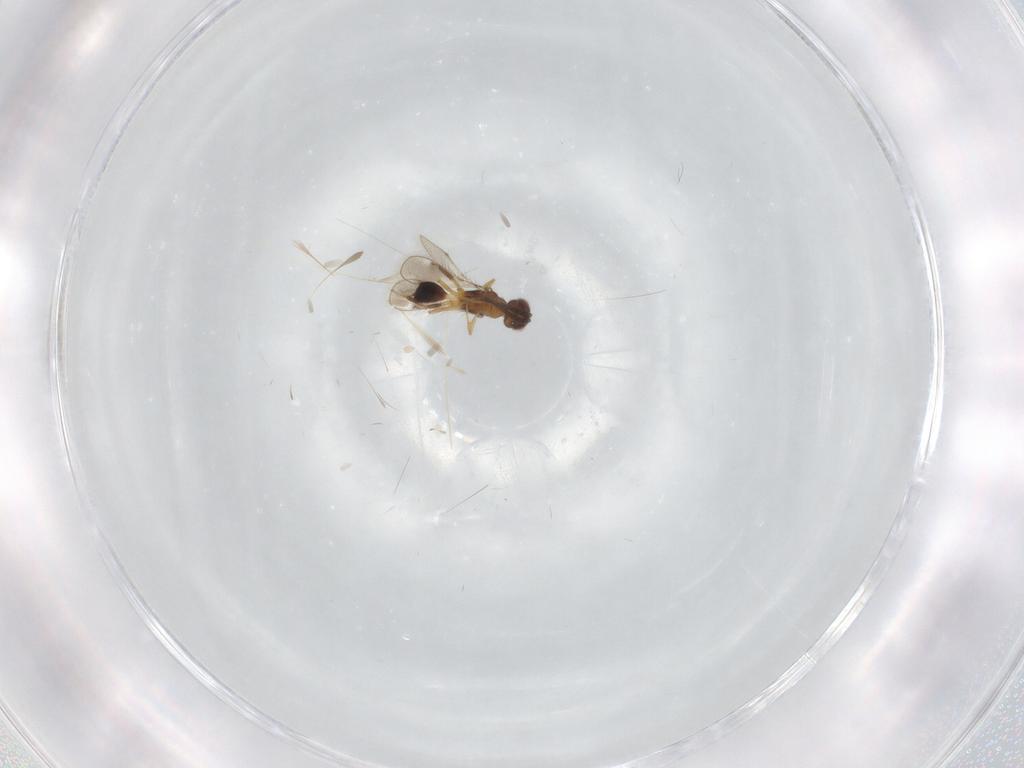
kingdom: Animalia
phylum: Arthropoda
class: Insecta
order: Hymenoptera
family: Pteromalidae
